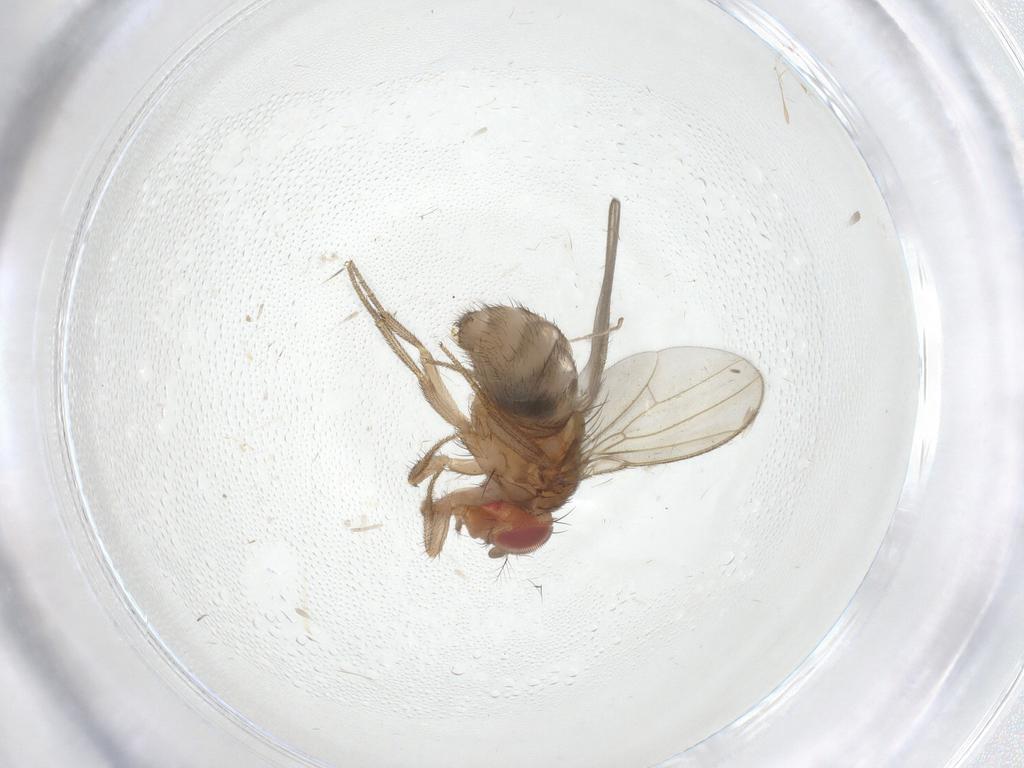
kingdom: Animalia
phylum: Arthropoda
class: Insecta
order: Diptera
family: Drosophilidae
